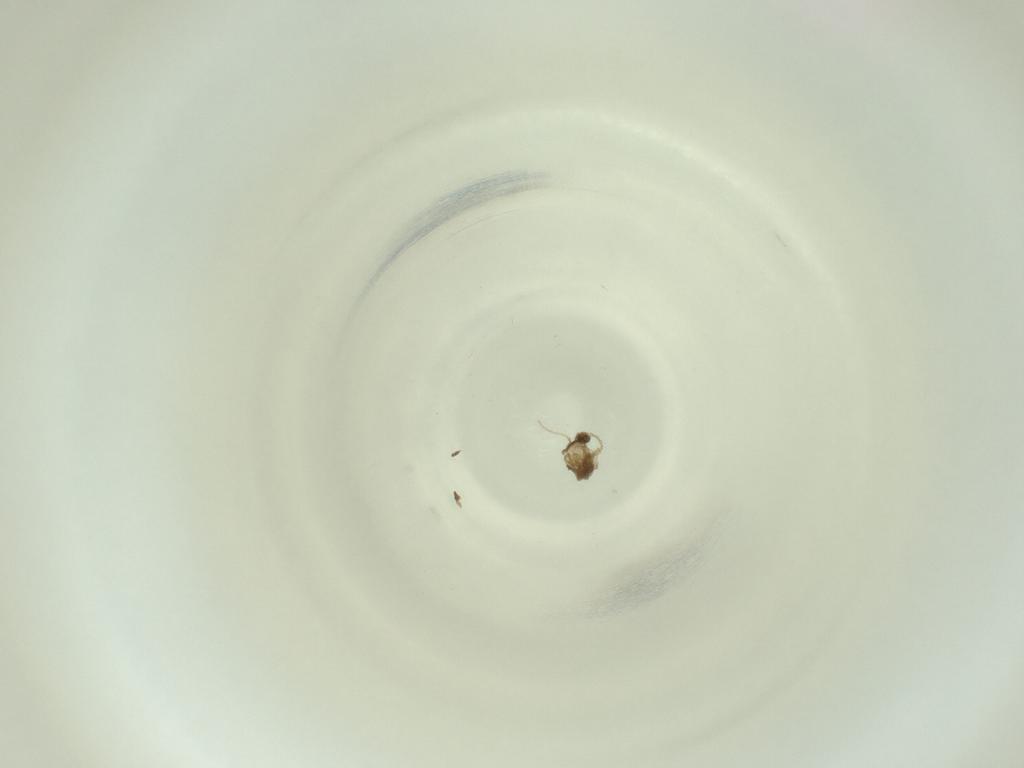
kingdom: Animalia
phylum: Arthropoda
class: Insecta
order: Diptera
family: Cecidomyiidae
